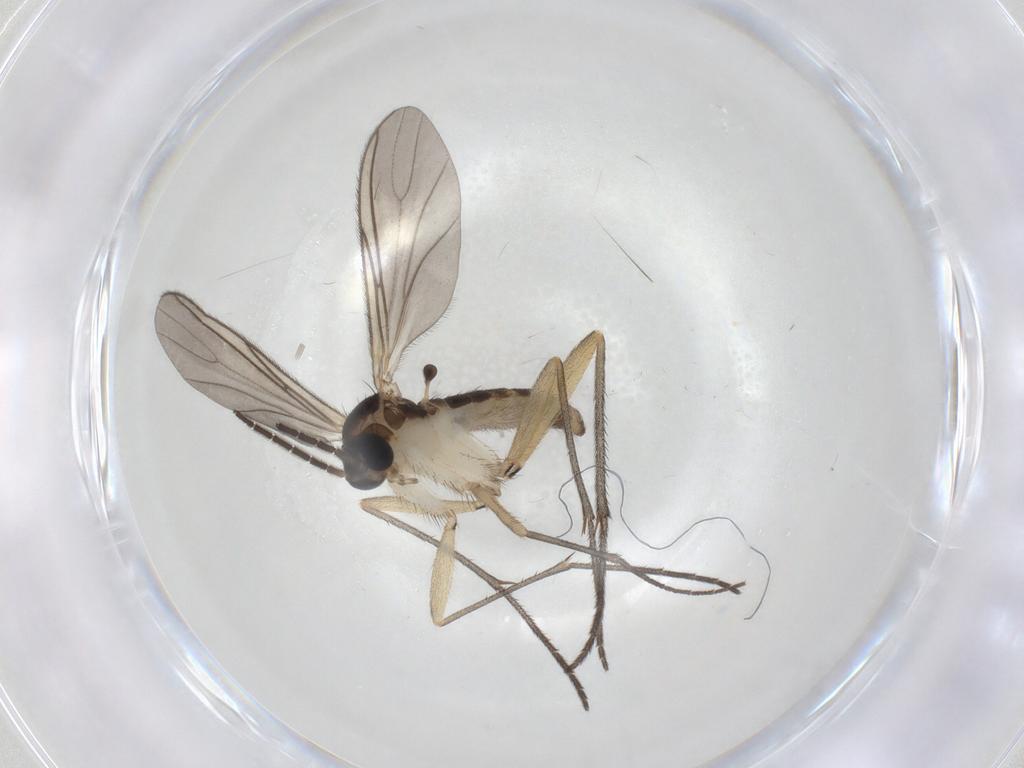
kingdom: Animalia
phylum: Arthropoda
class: Insecta
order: Diptera
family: Sciaridae
